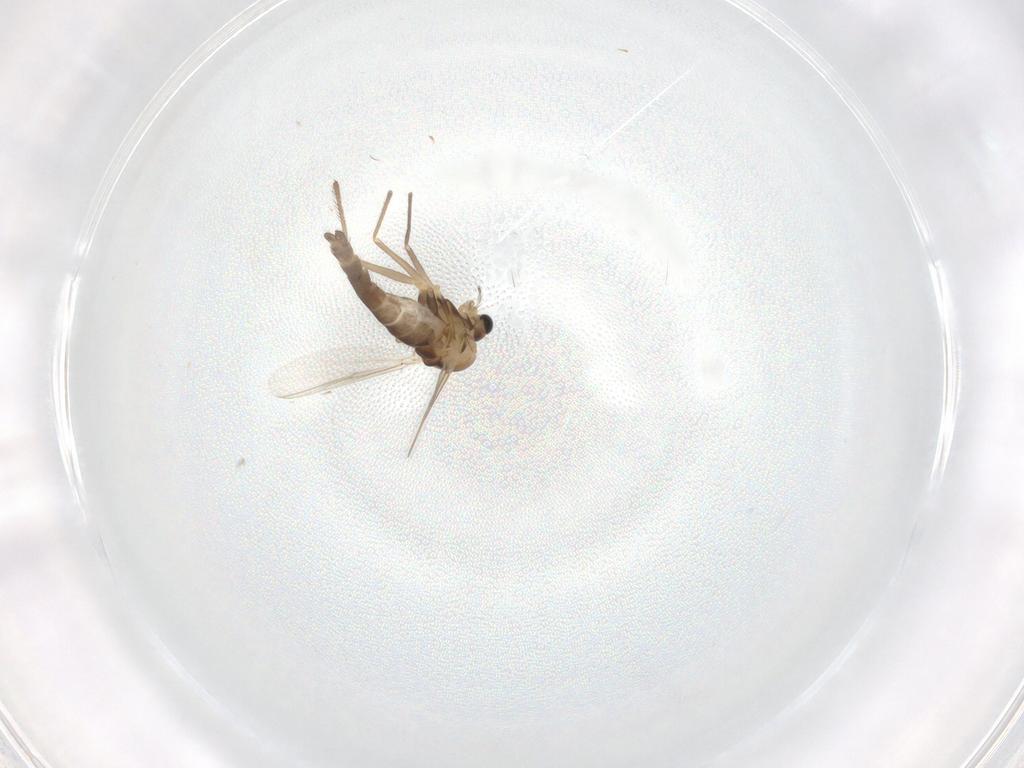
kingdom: Animalia
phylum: Arthropoda
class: Insecta
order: Diptera
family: Chironomidae
